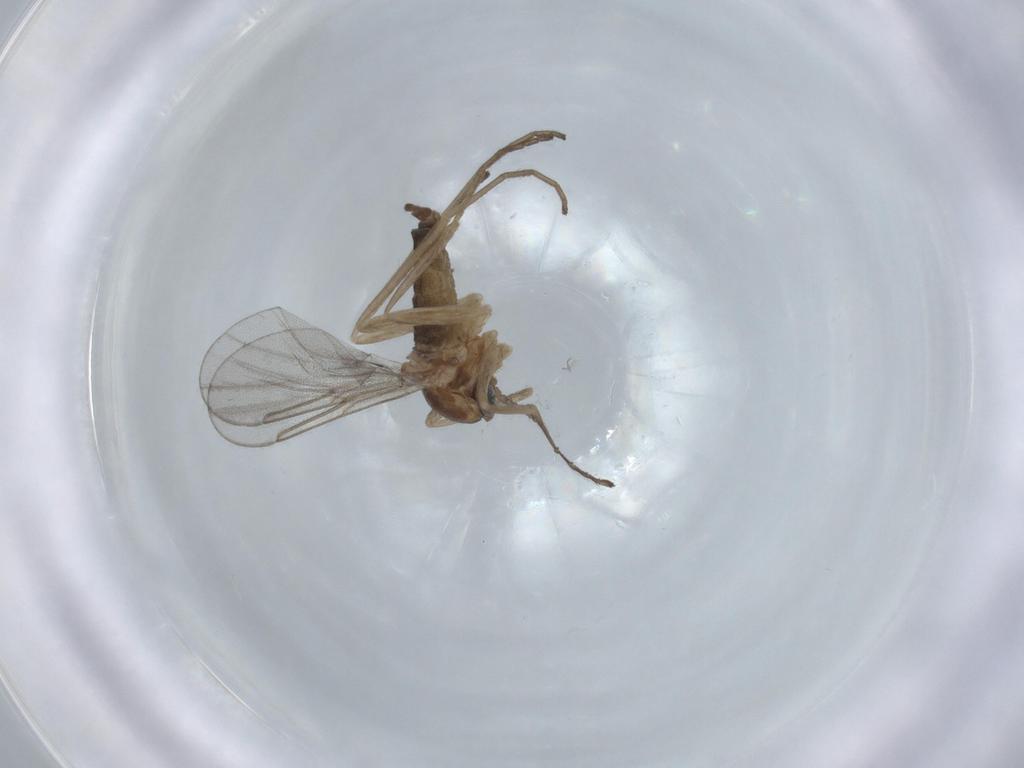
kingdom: Animalia
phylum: Arthropoda
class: Insecta
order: Diptera
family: Cecidomyiidae
